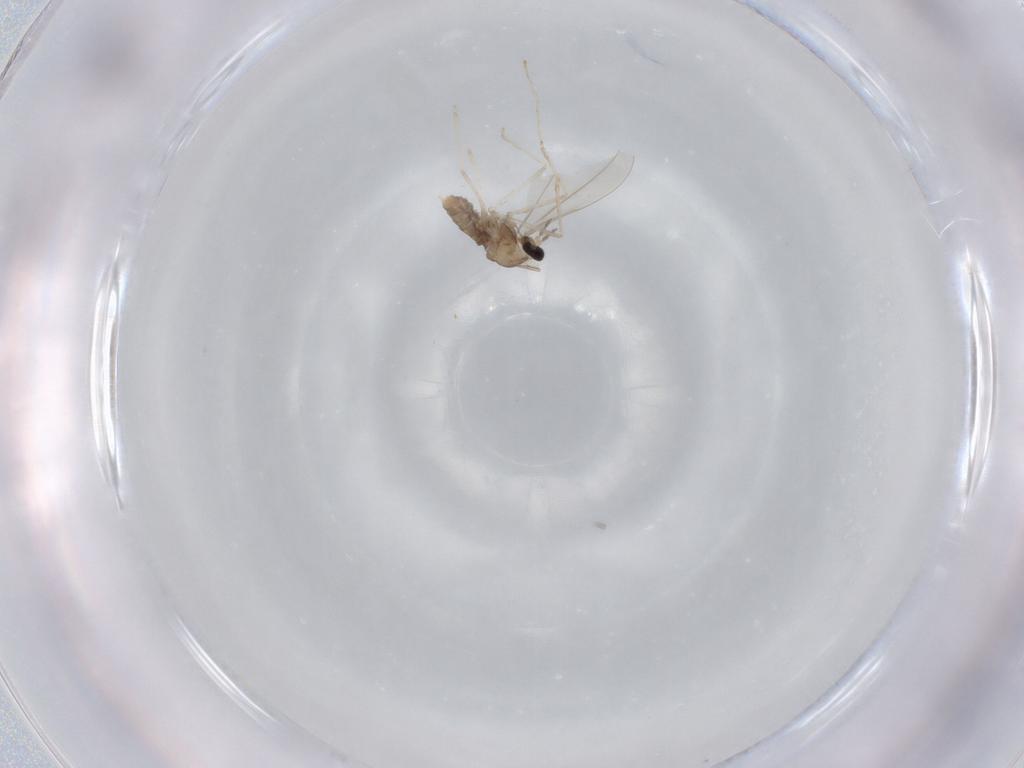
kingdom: Animalia
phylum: Arthropoda
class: Insecta
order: Diptera
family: Cecidomyiidae
